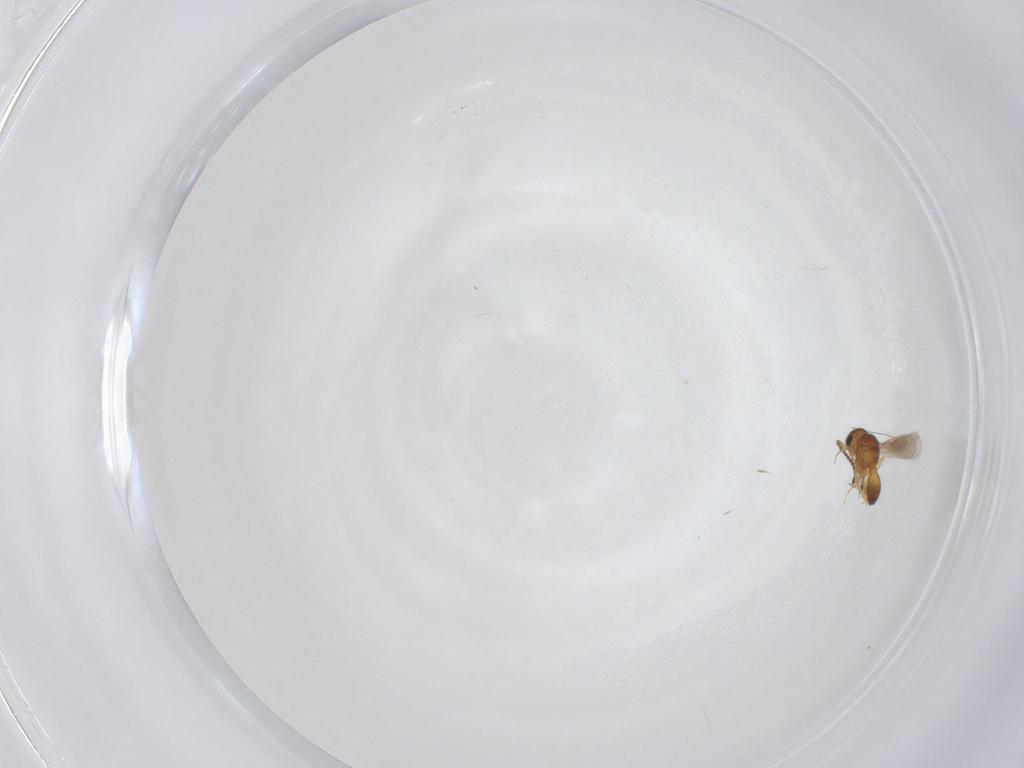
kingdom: Animalia
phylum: Arthropoda
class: Insecta
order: Hymenoptera
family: Scelionidae
